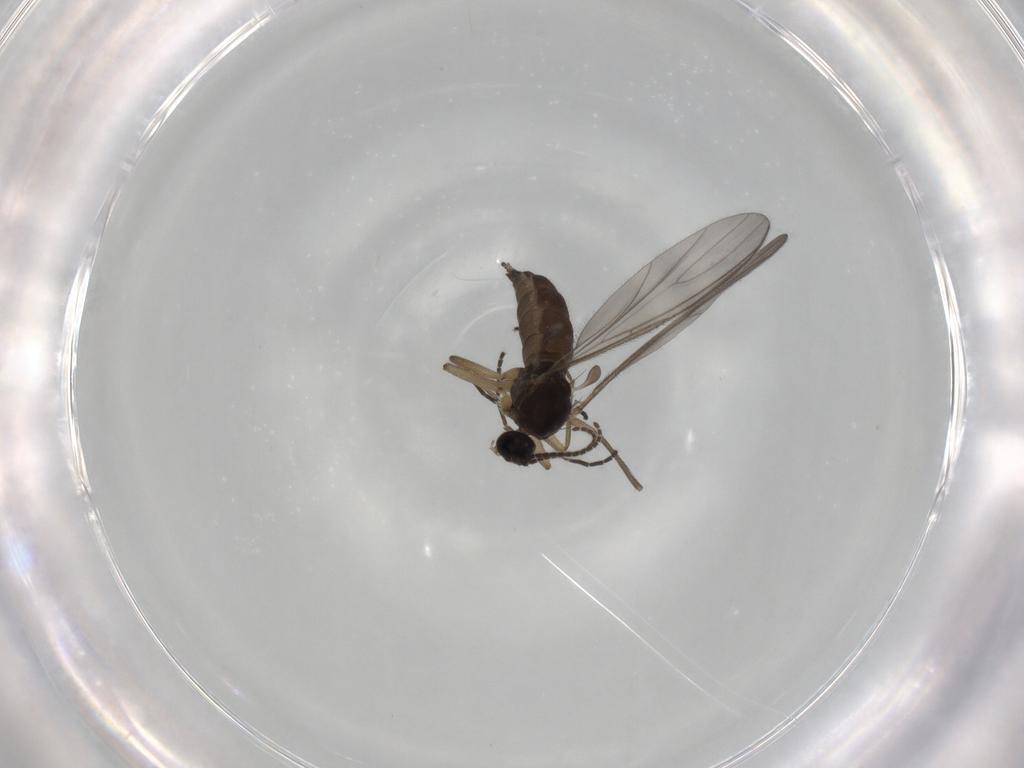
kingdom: Animalia
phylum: Arthropoda
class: Insecta
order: Diptera
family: Sciaridae
